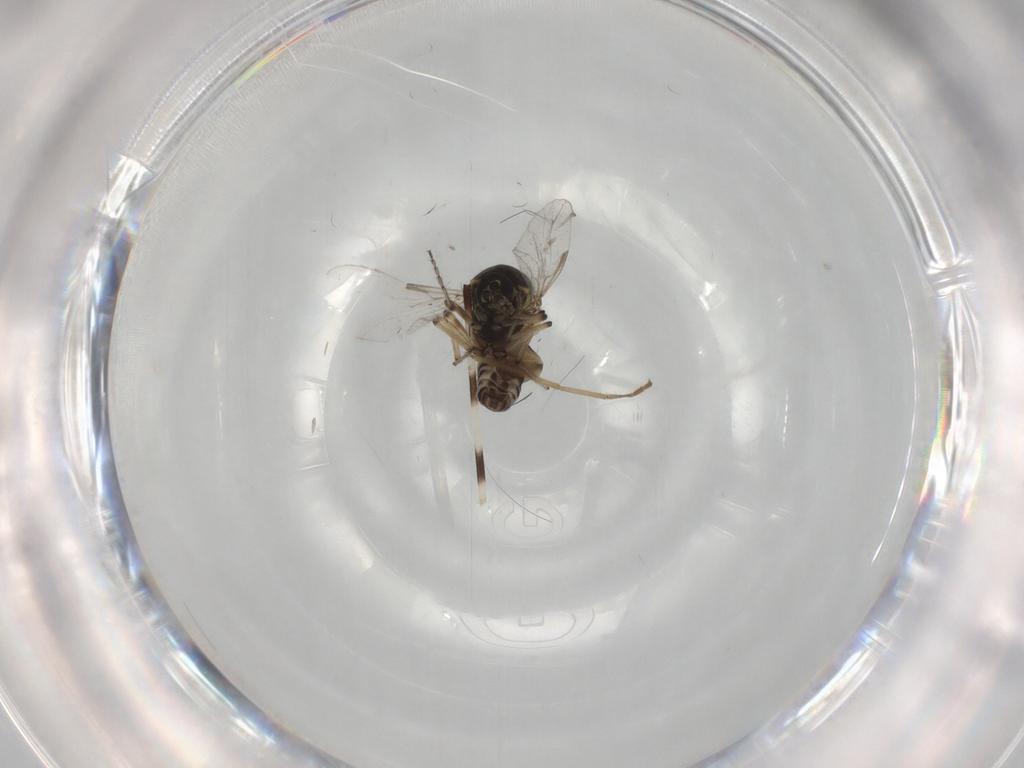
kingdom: Animalia
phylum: Arthropoda
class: Insecta
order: Diptera
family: Ceratopogonidae
